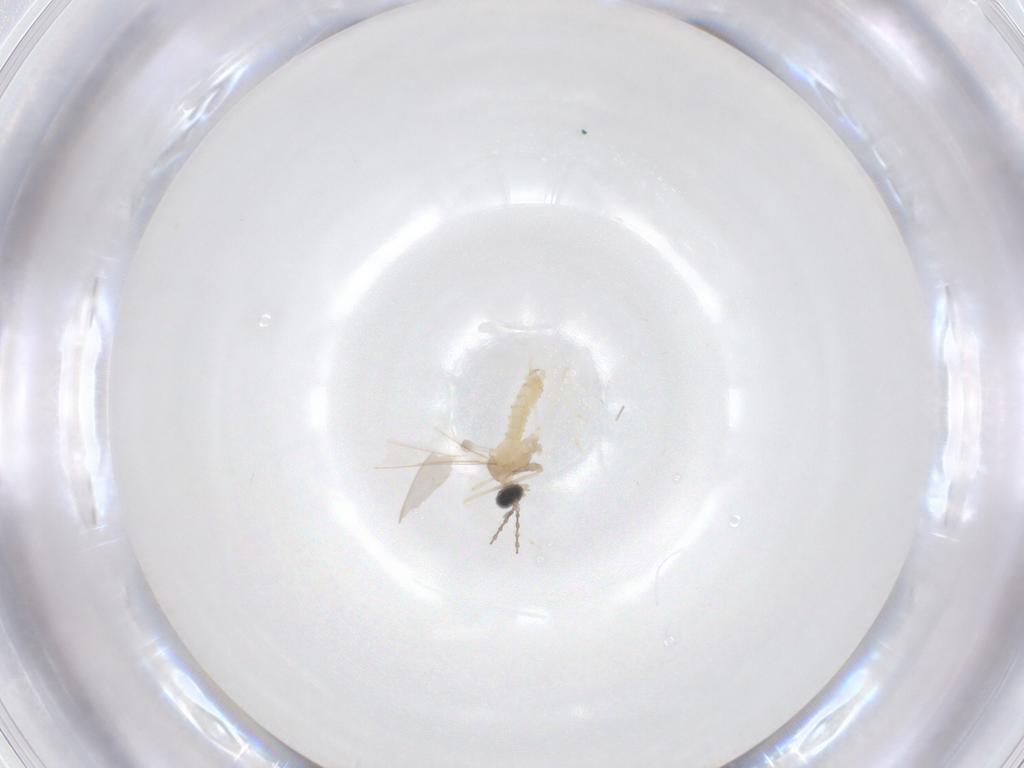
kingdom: Animalia
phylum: Arthropoda
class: Insecta
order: Diptera
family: Cecidomyiidae
